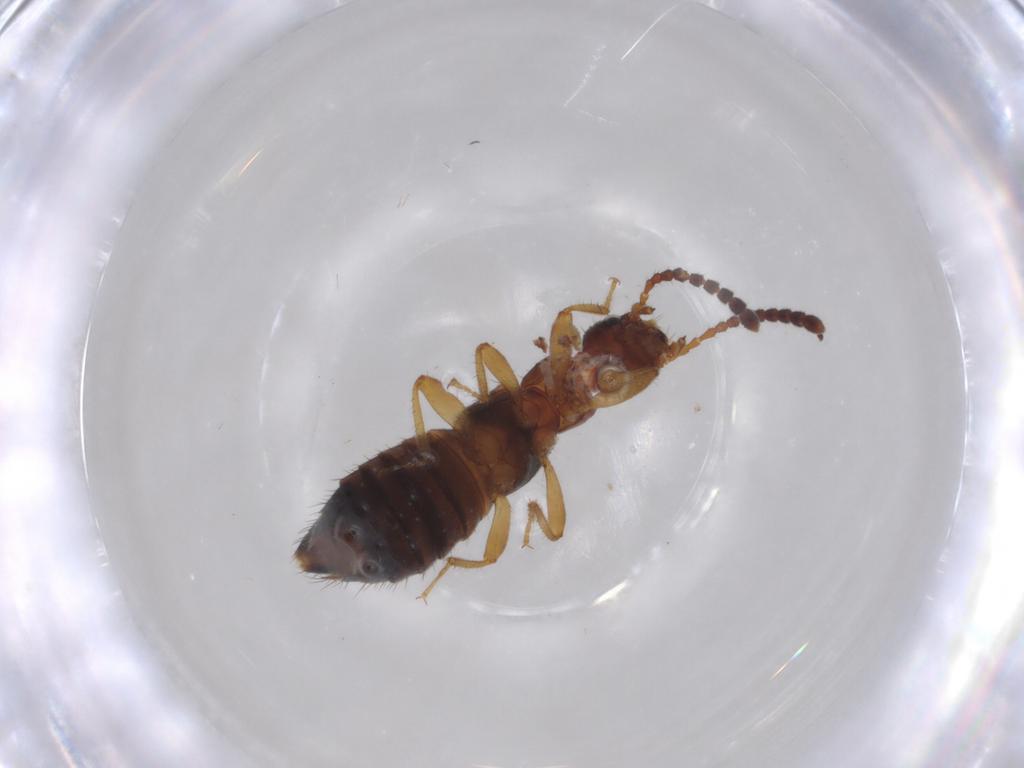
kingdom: Animalia
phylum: Arthropoda
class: Insecta
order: Coleoptera
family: Staphylinidae
